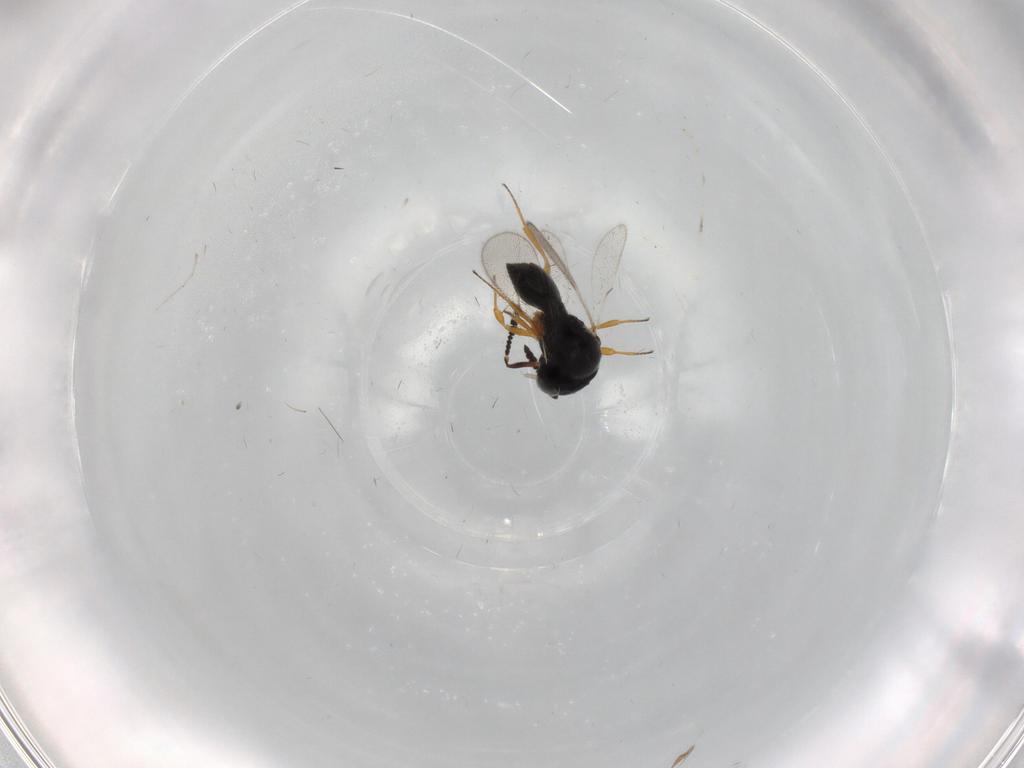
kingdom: Animalia
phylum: Arthropoda
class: Insecta
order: Hymenoptera
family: Scelionidae
